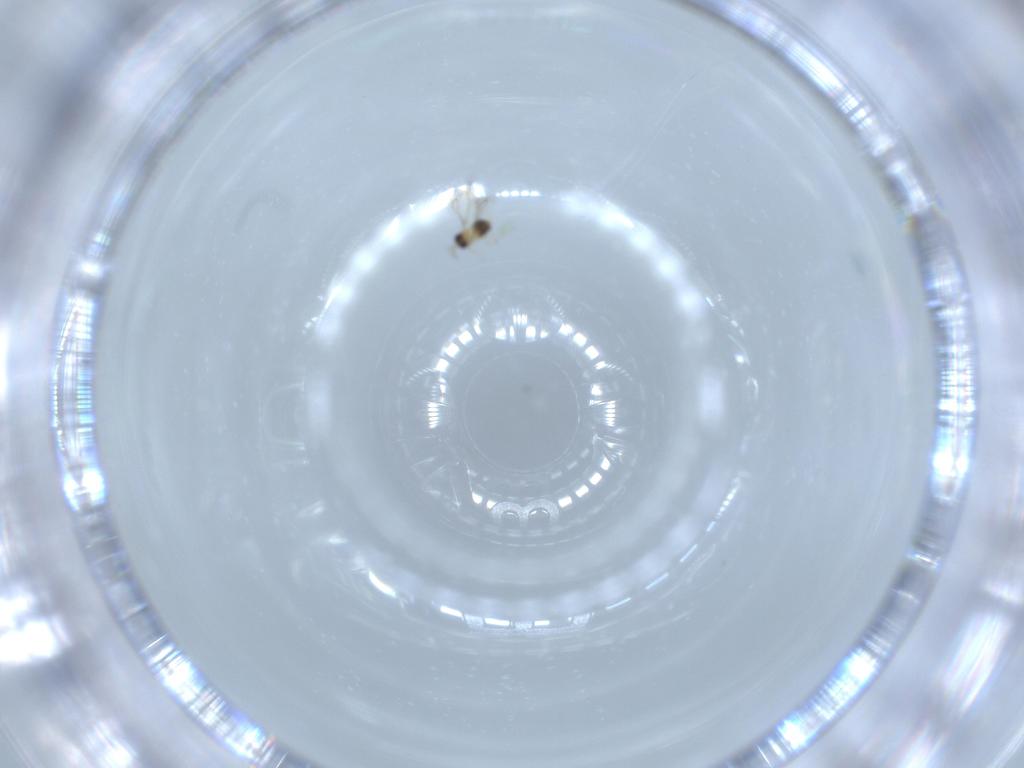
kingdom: Animalia
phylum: Arthropoda
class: Insecta
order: Hymenoptera
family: Mymaridae
